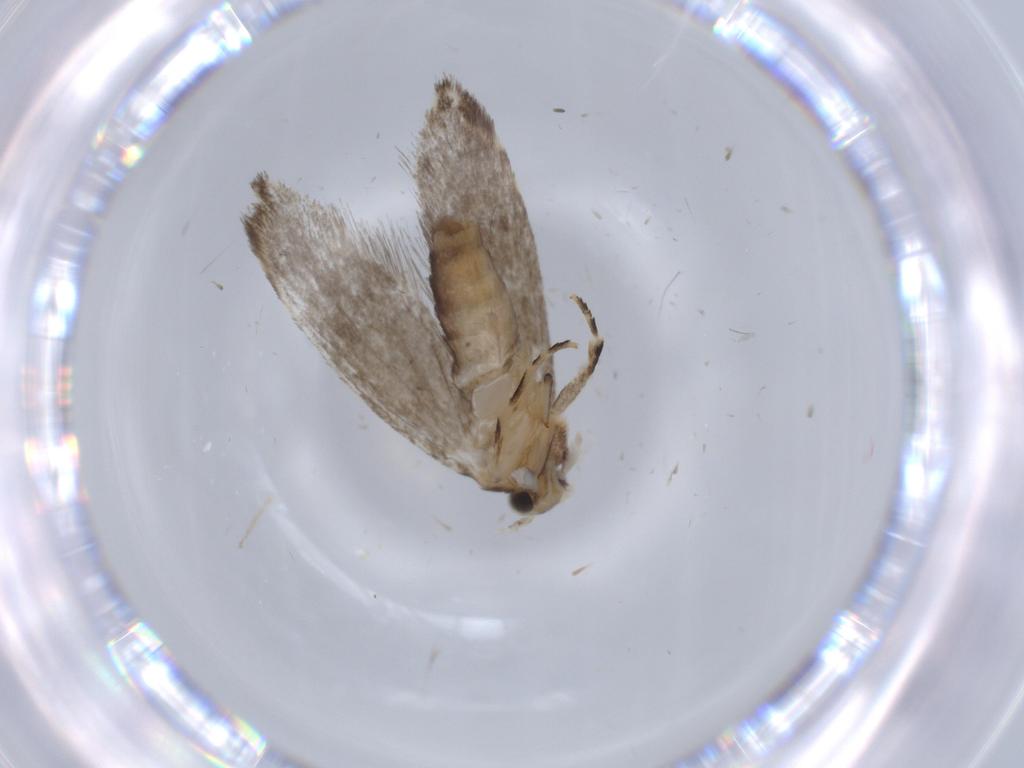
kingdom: Animalia
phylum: Arthropoda
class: Insecta
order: Lepidoptera
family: Tineidae
